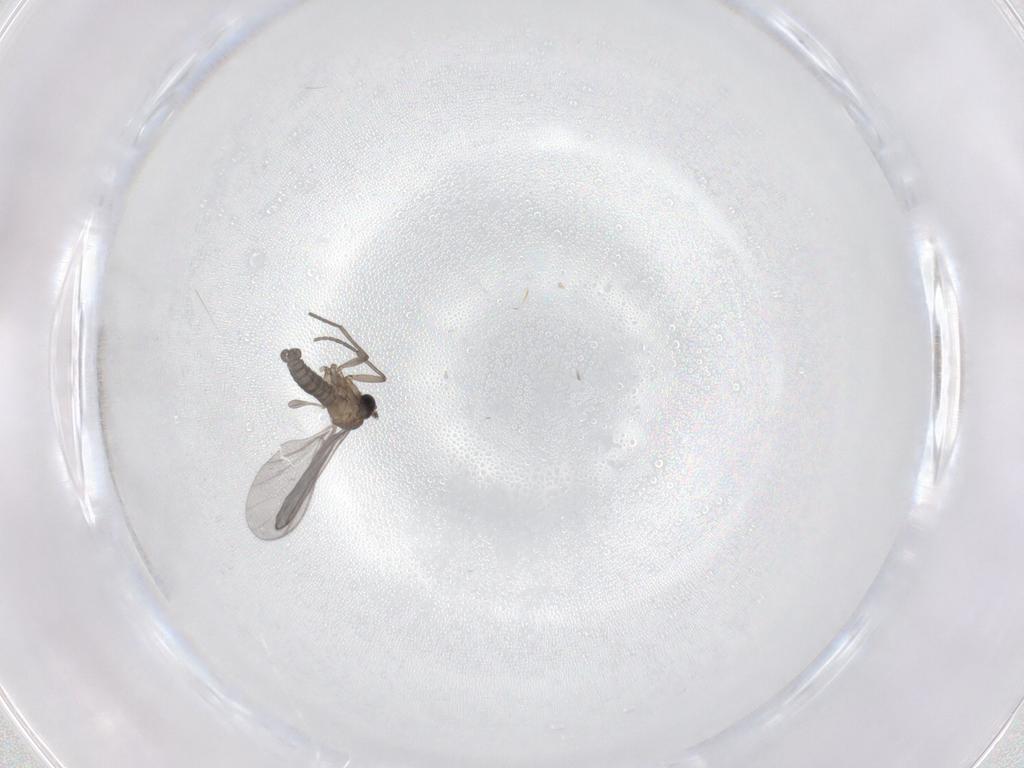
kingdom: Animalia
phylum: Arthropoda
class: Insecta
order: Diptera
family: Sciaridae
